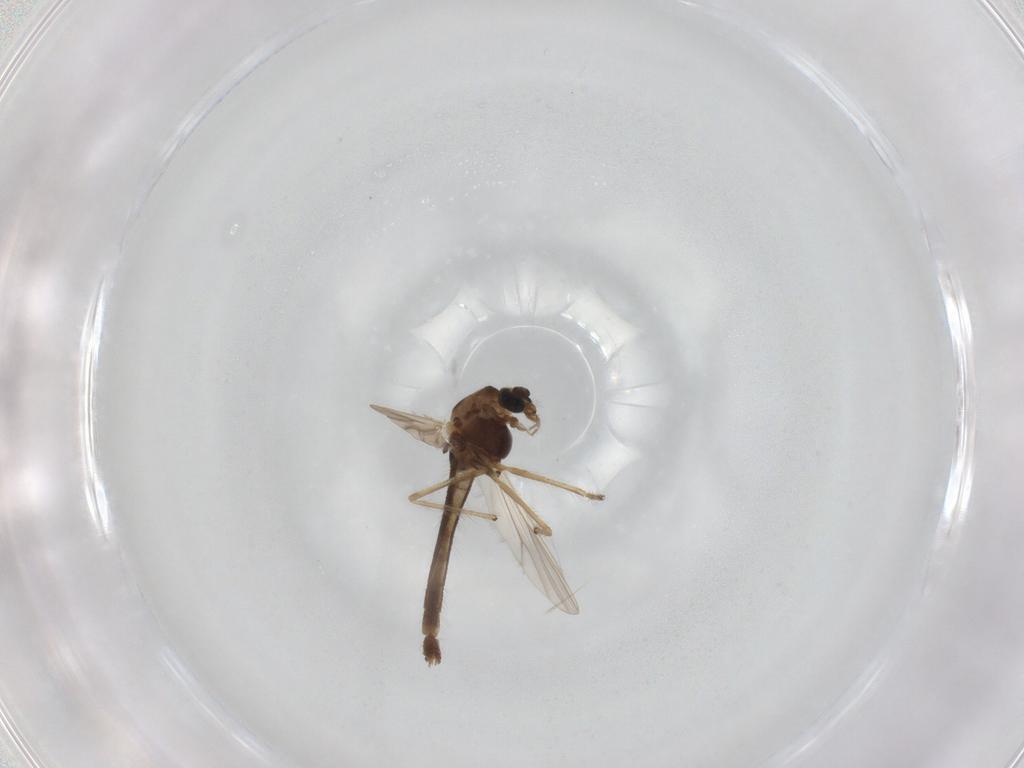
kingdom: Animalia
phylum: Arthropoda
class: Insecta
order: Diptera
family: Chironomidae
